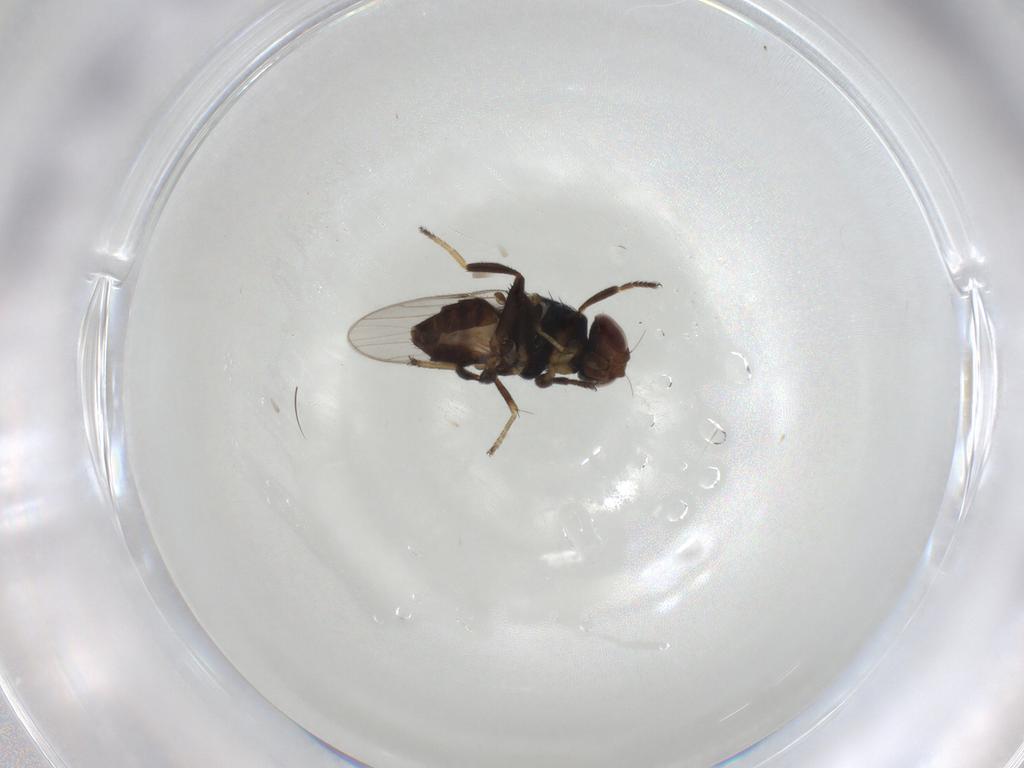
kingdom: Animalia
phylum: Arthropoda
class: Insecta
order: Diptera
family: Chloropidae
